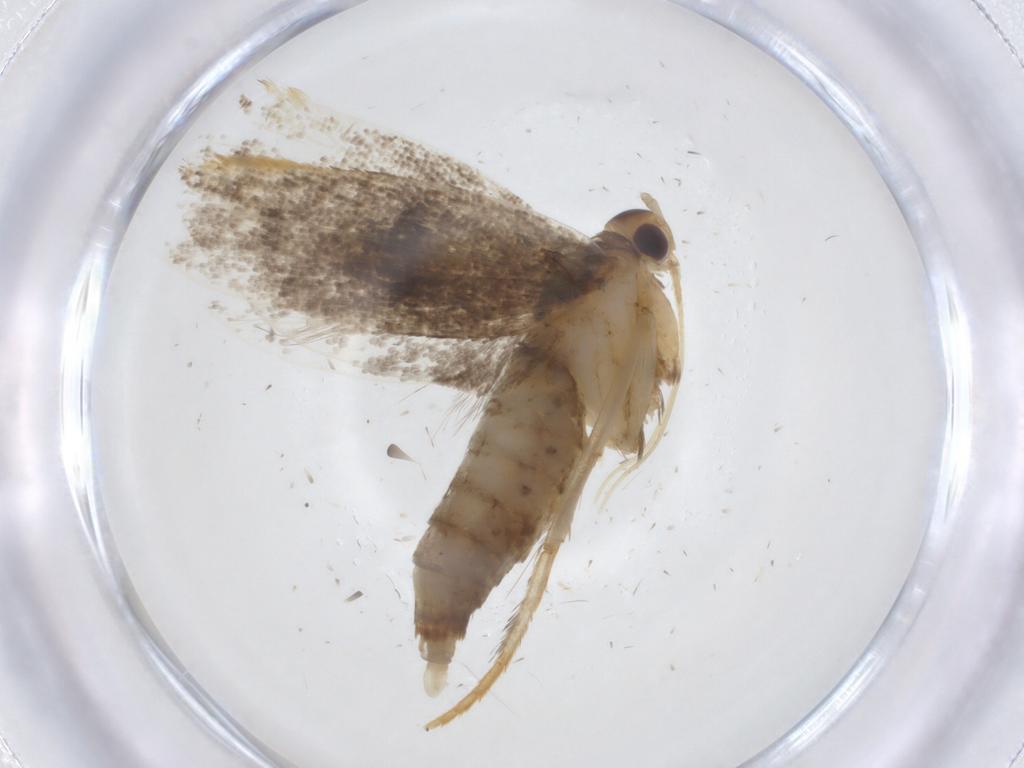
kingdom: Animalia
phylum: Arthropoda
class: Insecta
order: Lepidoptera
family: Lecithoceridae
